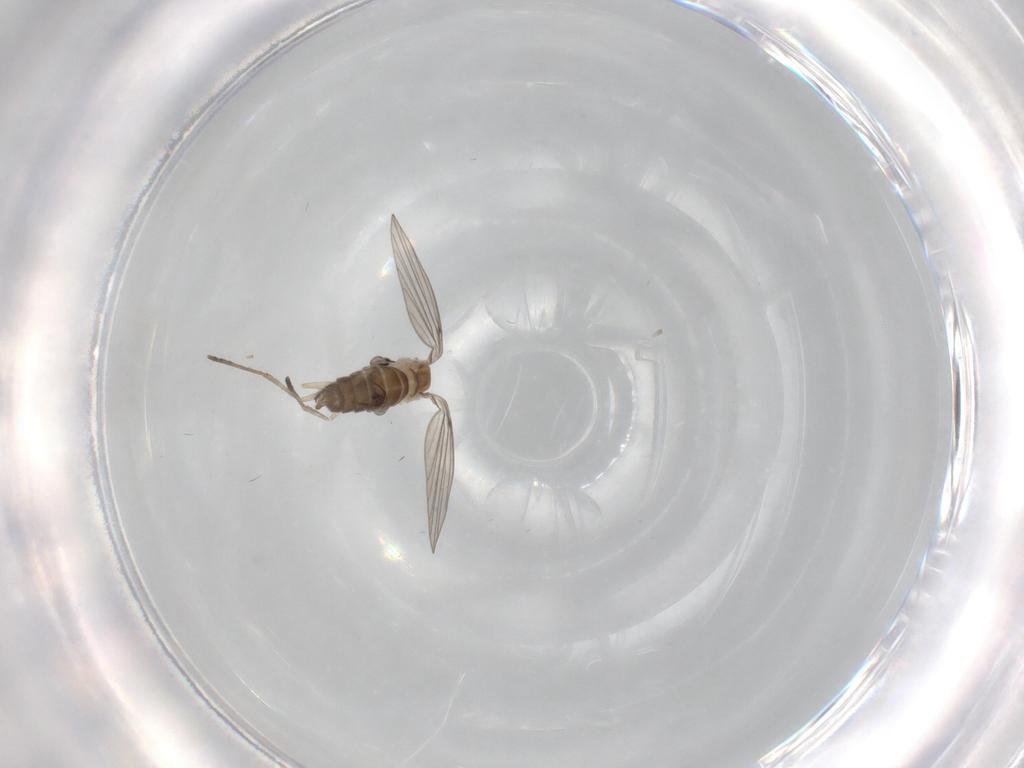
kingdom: Animalia
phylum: Arthropoda
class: Insecta
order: Diptera
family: Psychodidae
